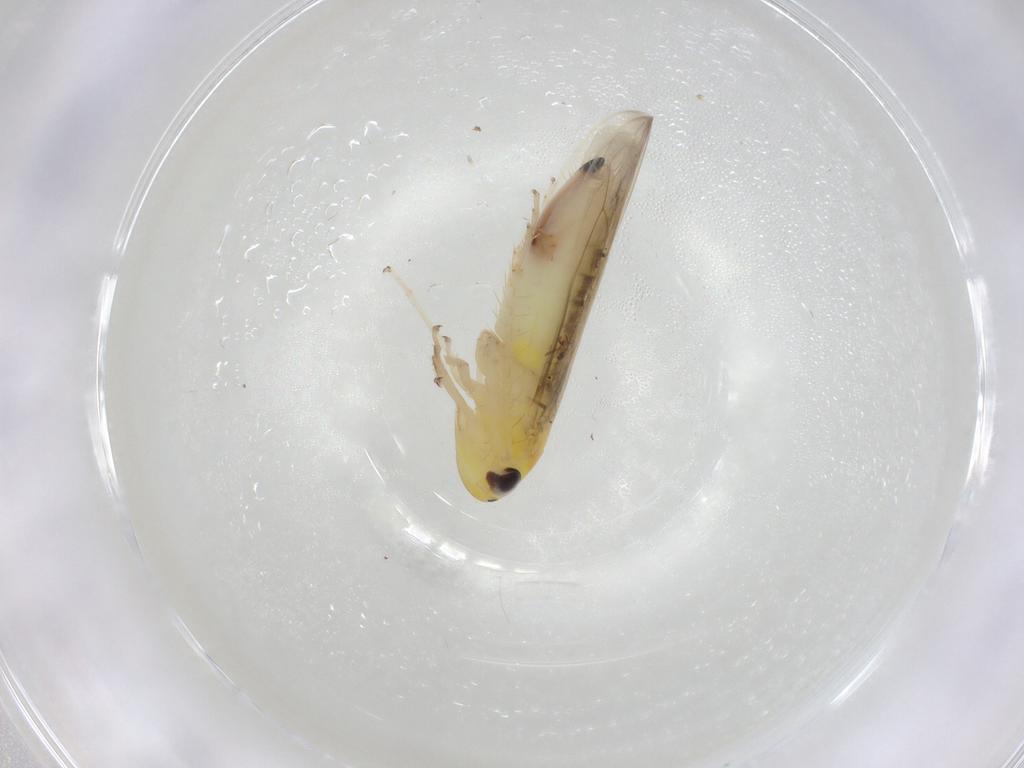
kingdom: Animalia
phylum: Arthropoda
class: Insecta
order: Hemiptera
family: Cicadellidae
